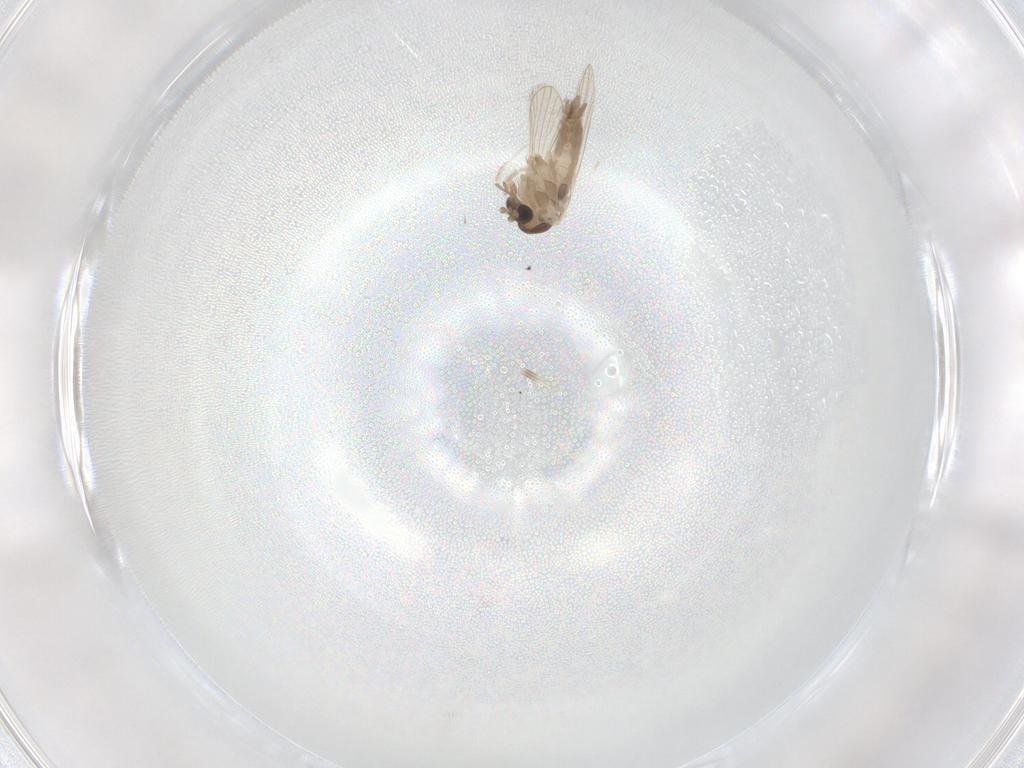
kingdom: Animalia
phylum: Arthropoda
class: Insecta
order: Diptera
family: Psychodidae
